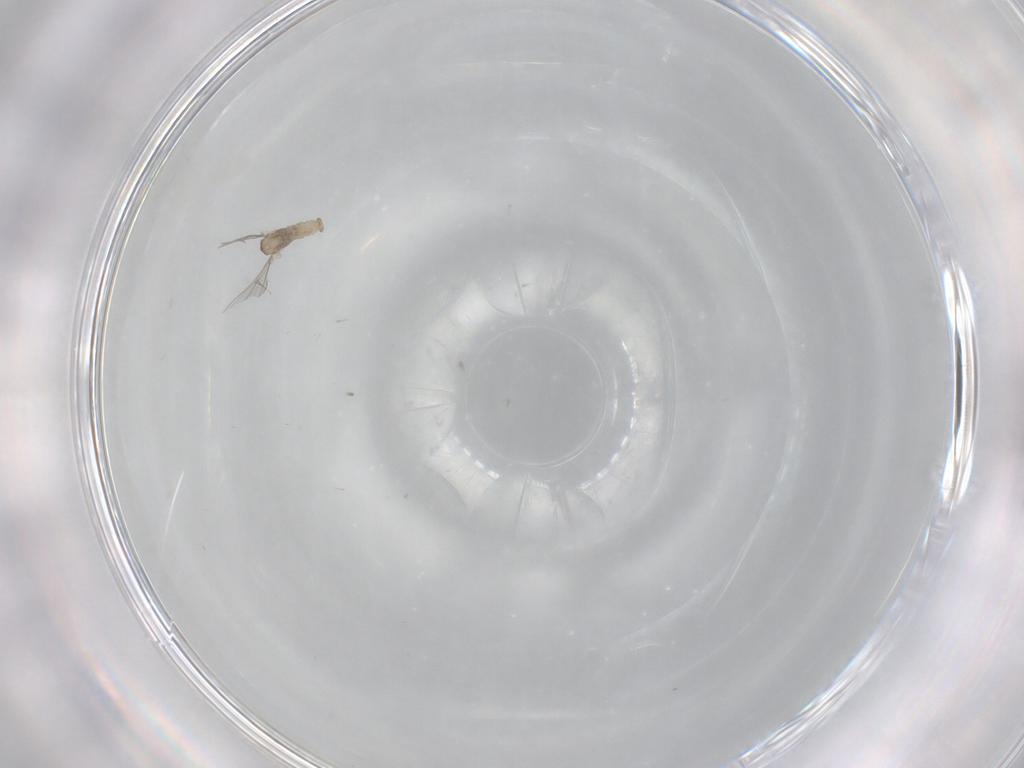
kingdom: Animalia
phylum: Arthropoda
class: Insecta
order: Diptera
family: Cecidomyiidae
